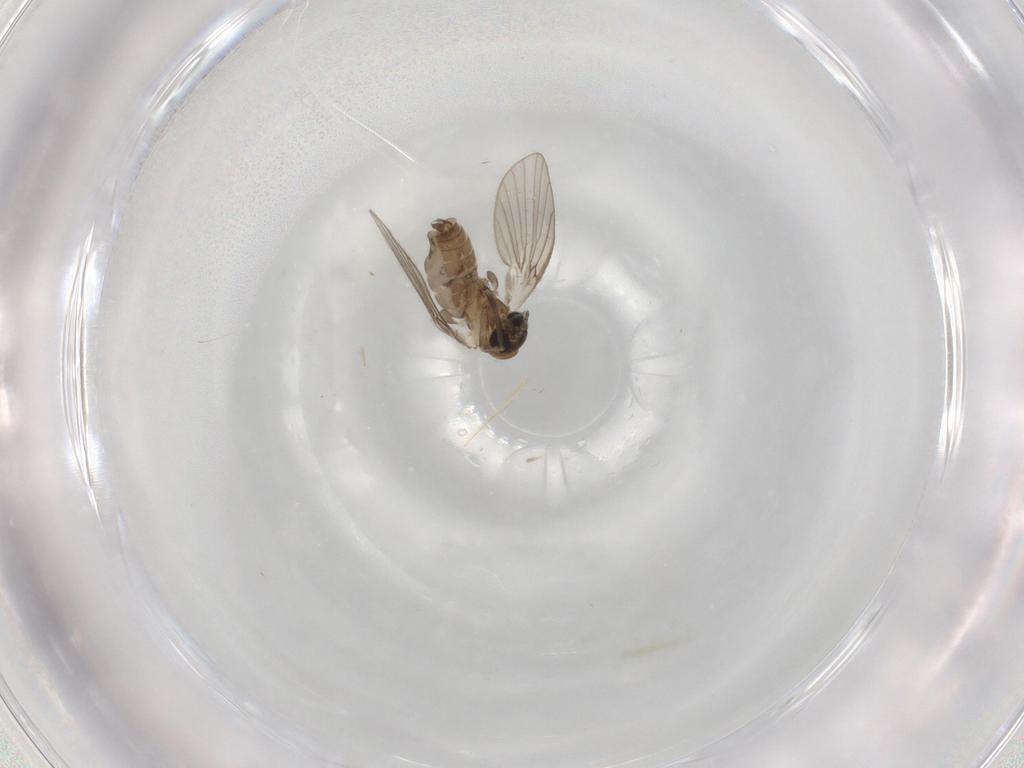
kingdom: Animalia
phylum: Arthropoda
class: Insecta
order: Diptera
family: Psychodidae
